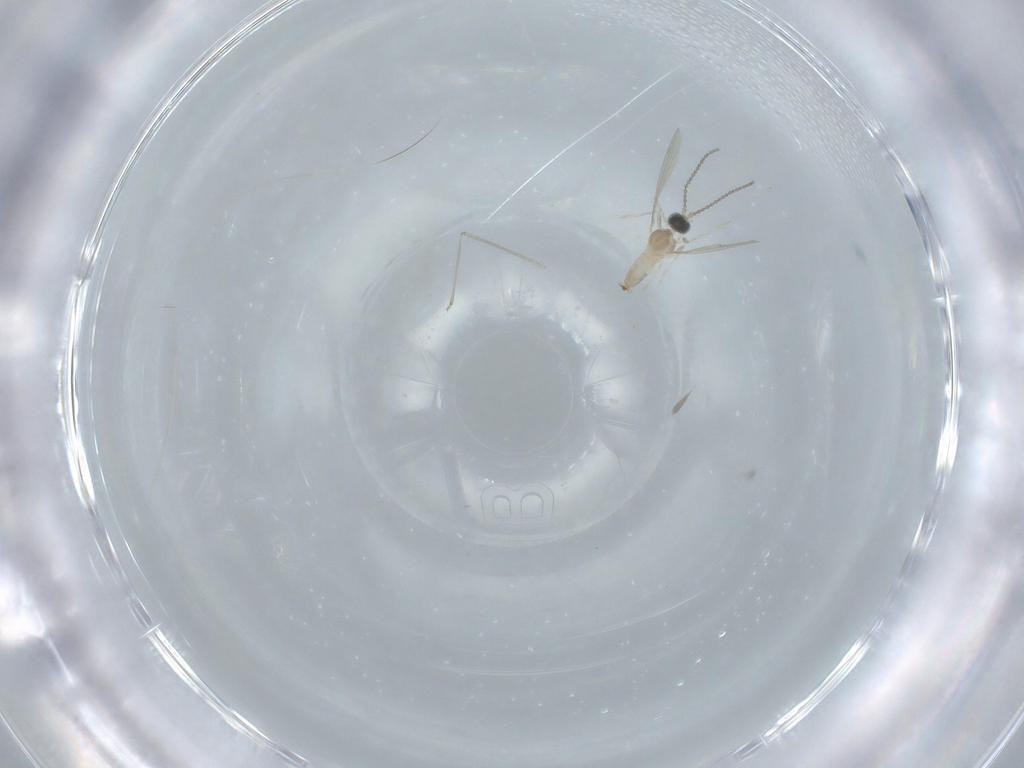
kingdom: Animalia
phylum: Arthropoda
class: Insecta
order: Diptera
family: Cecidomyiidae
